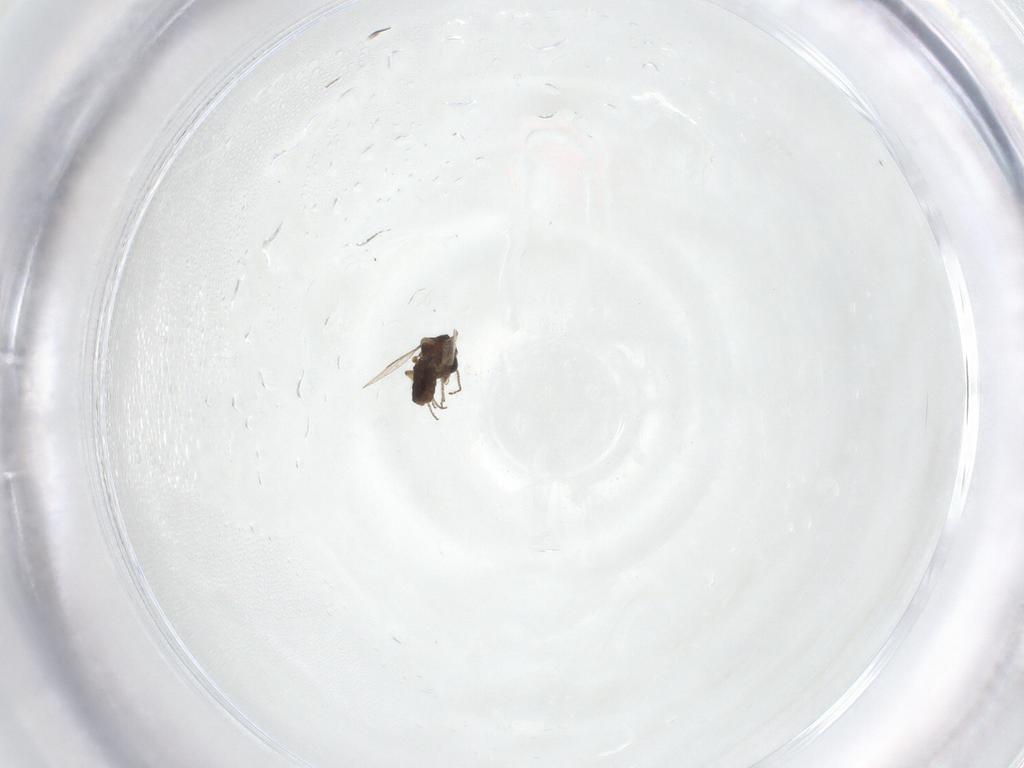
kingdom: Animalia
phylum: Arthropoda
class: Insecta
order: Diptera
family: Ceratopogonidae
